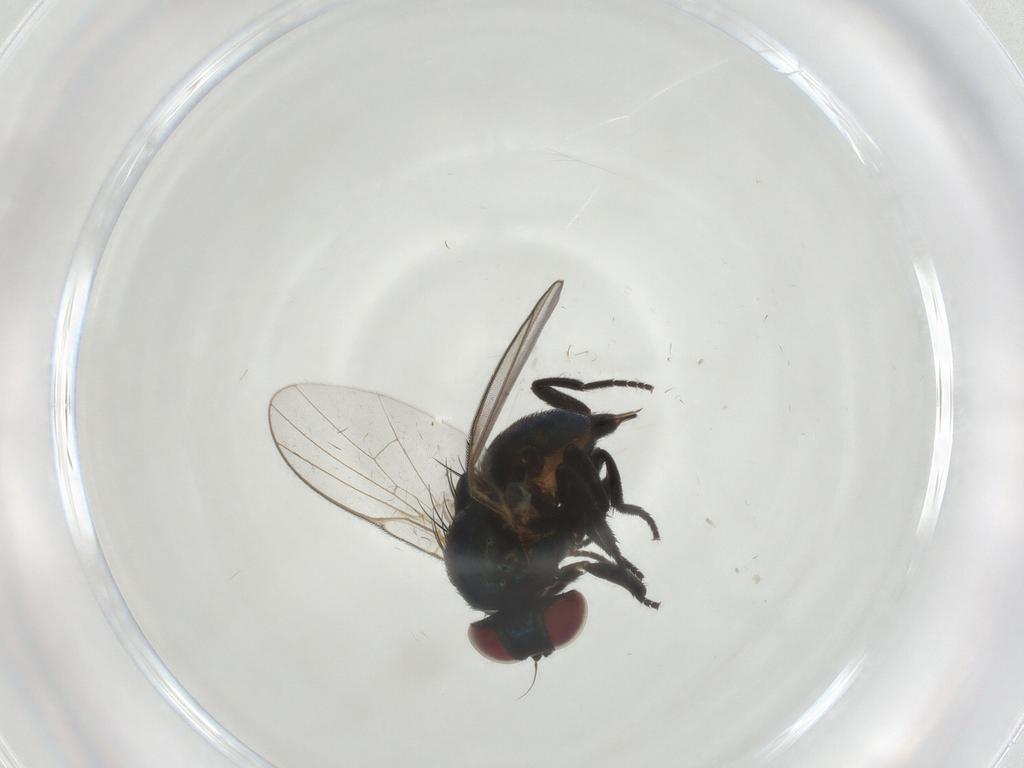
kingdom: Animalia
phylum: Arthropoda
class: Insecta
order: Diptera
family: Agromyzidae
